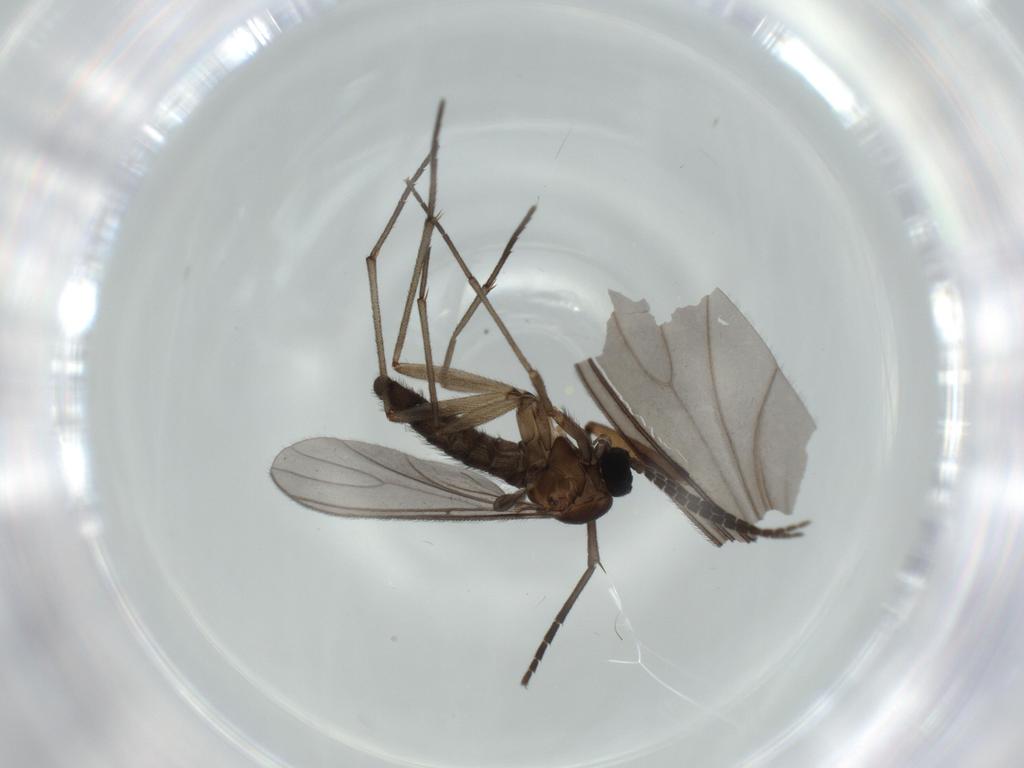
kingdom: Animalia
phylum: Arthropoda
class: Insecta
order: Diptera
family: Sciaridae
